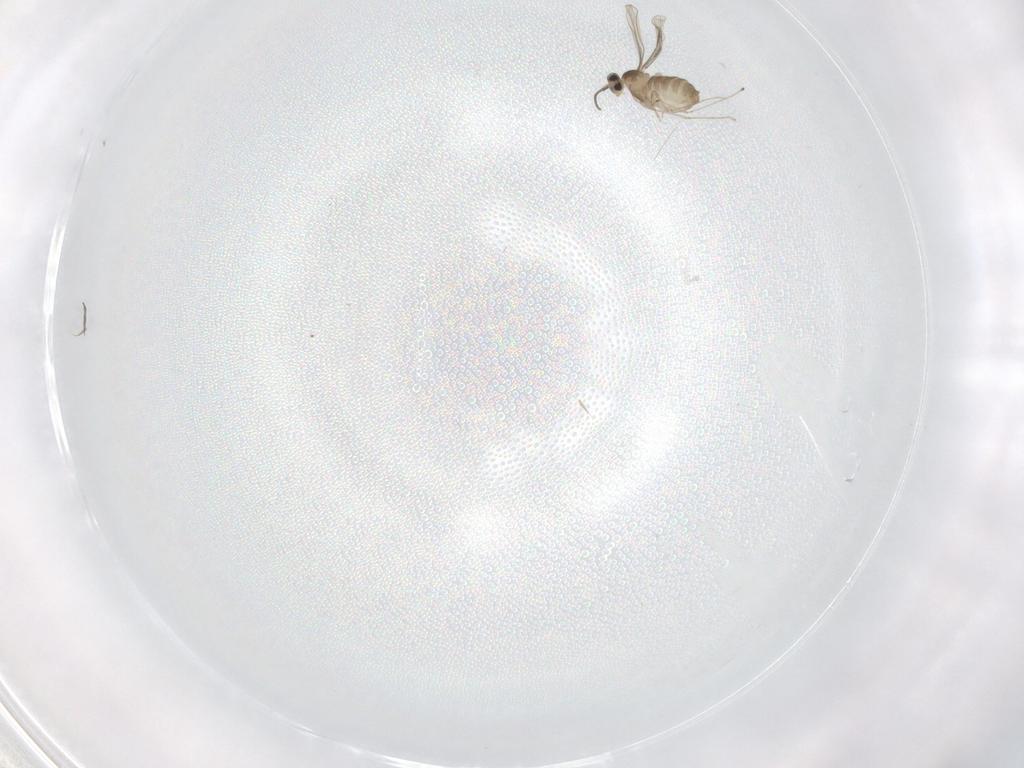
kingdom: Animalia
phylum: Arthropoda
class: Insecta
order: Diptera
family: Cecidomyiidae
